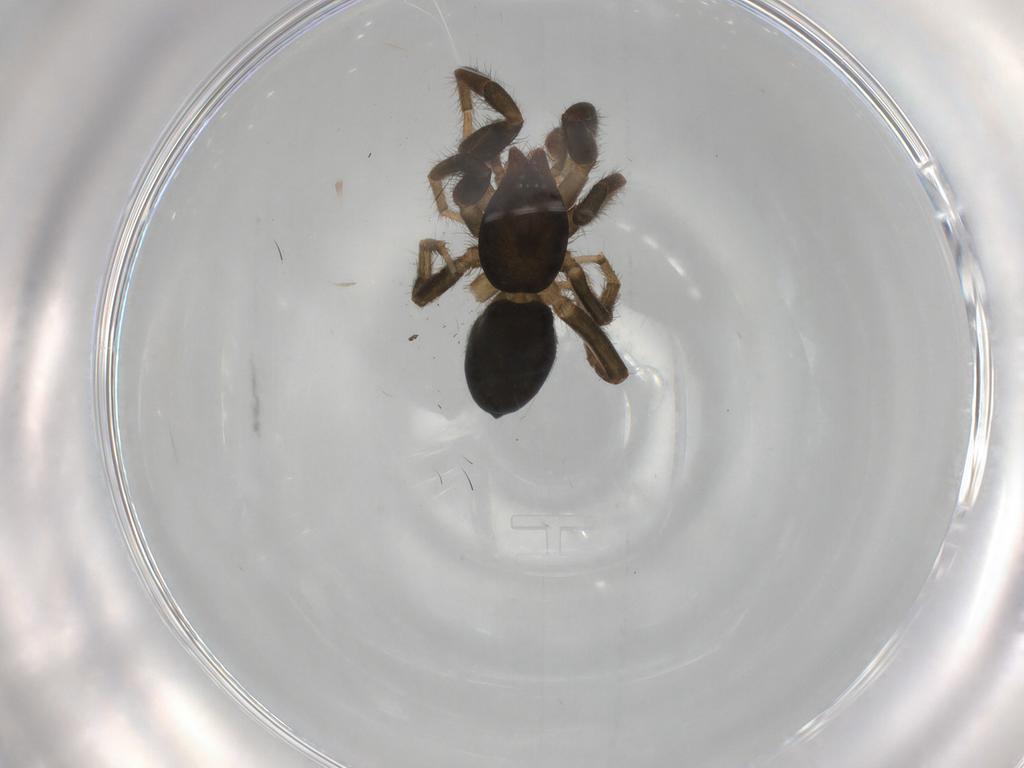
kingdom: Animalia
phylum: Arthropoda
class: Arachnida
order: Araneae
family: Gnaphosidae
